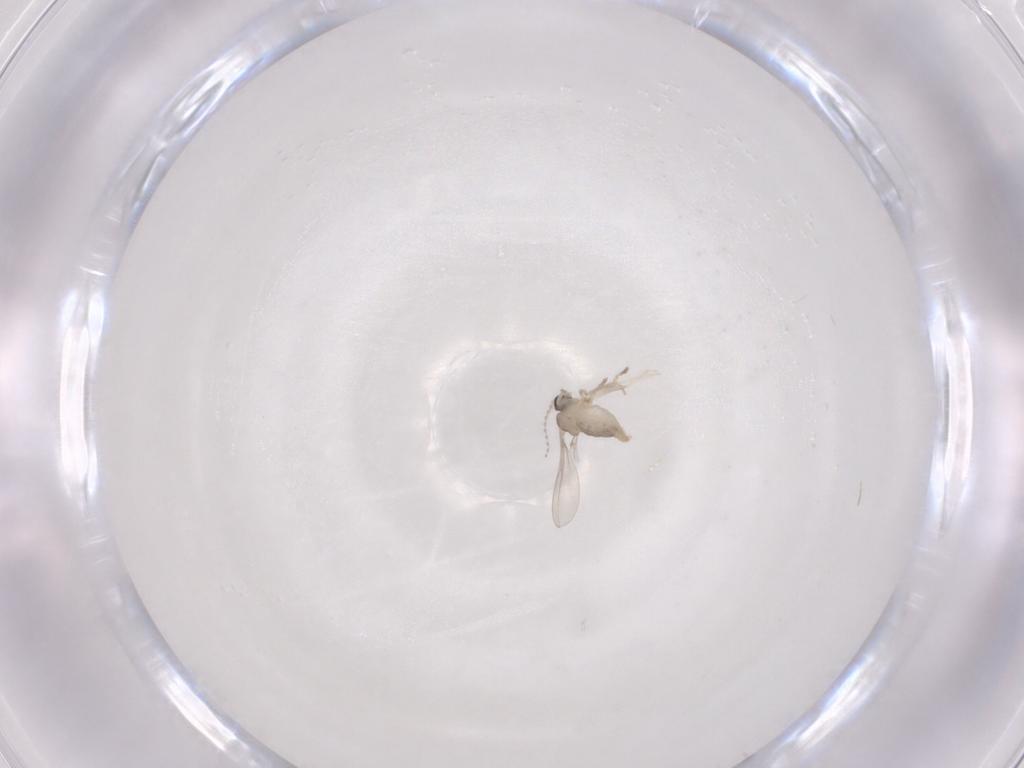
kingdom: Animalia
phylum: Arthropoda
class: Insecta
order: Diptera
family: Cecidomyiidae
